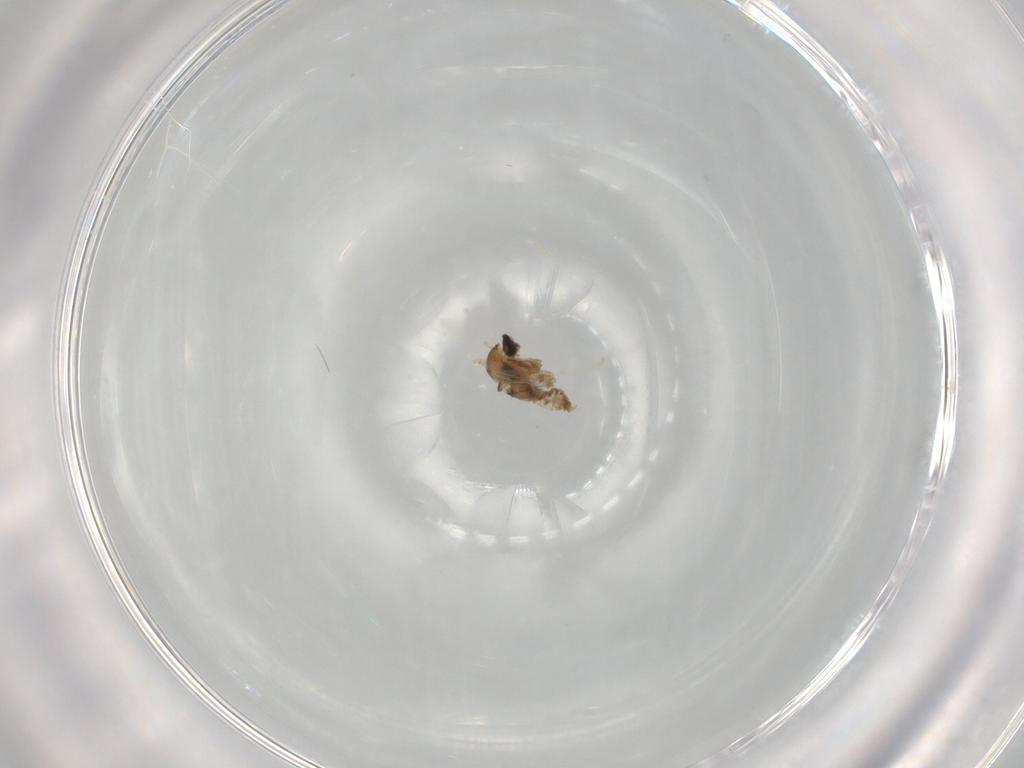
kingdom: Animalia
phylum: Arthropoda
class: Insecta
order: Diptera
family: Cecidomyiidae
